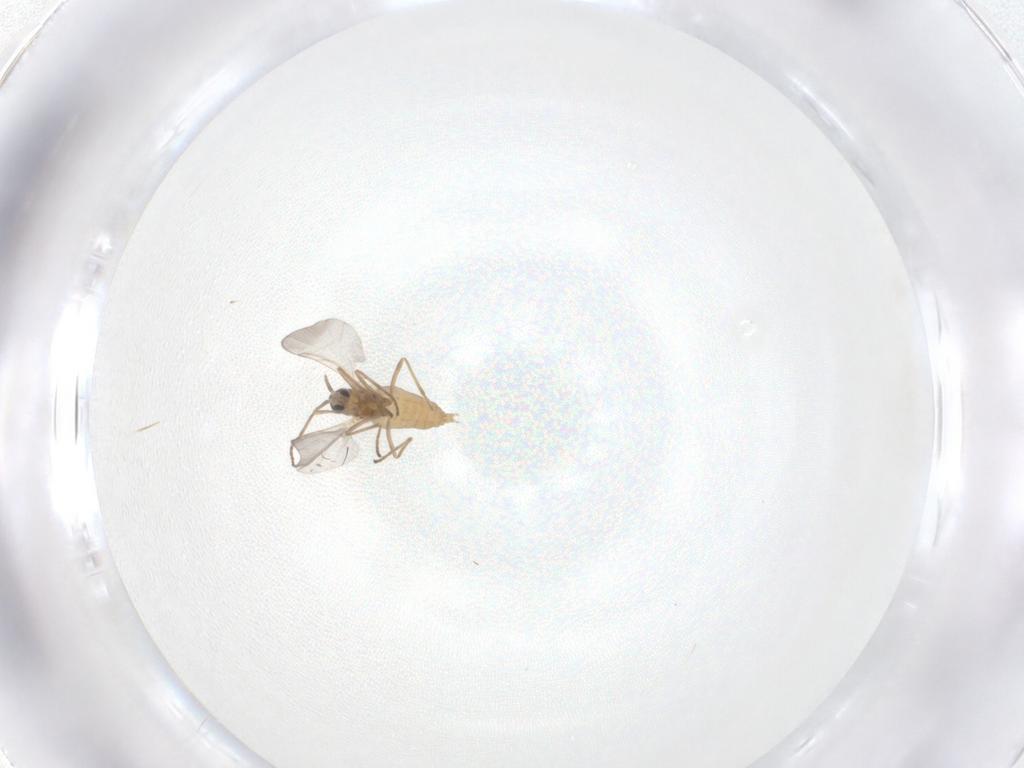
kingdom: Animalia
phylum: Arthropoda
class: Insecta
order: Diptera
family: Cecidomyiidae
